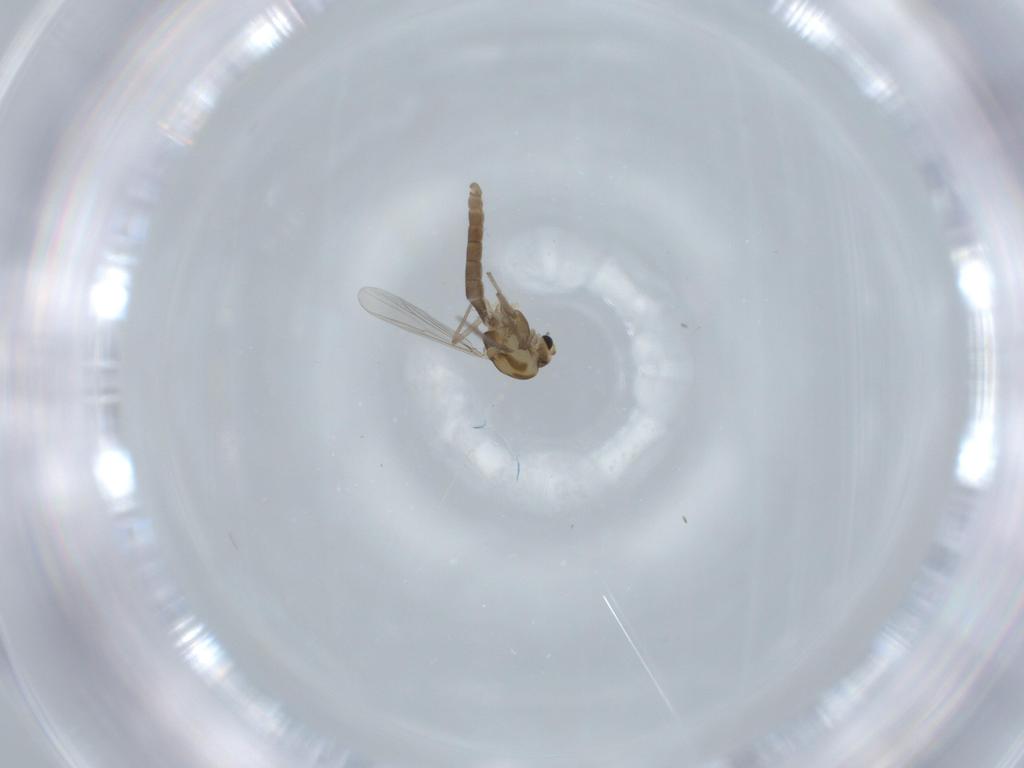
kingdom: Animalia
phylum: Arthropoda
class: Insecta
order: Diptera
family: Chironomidae
